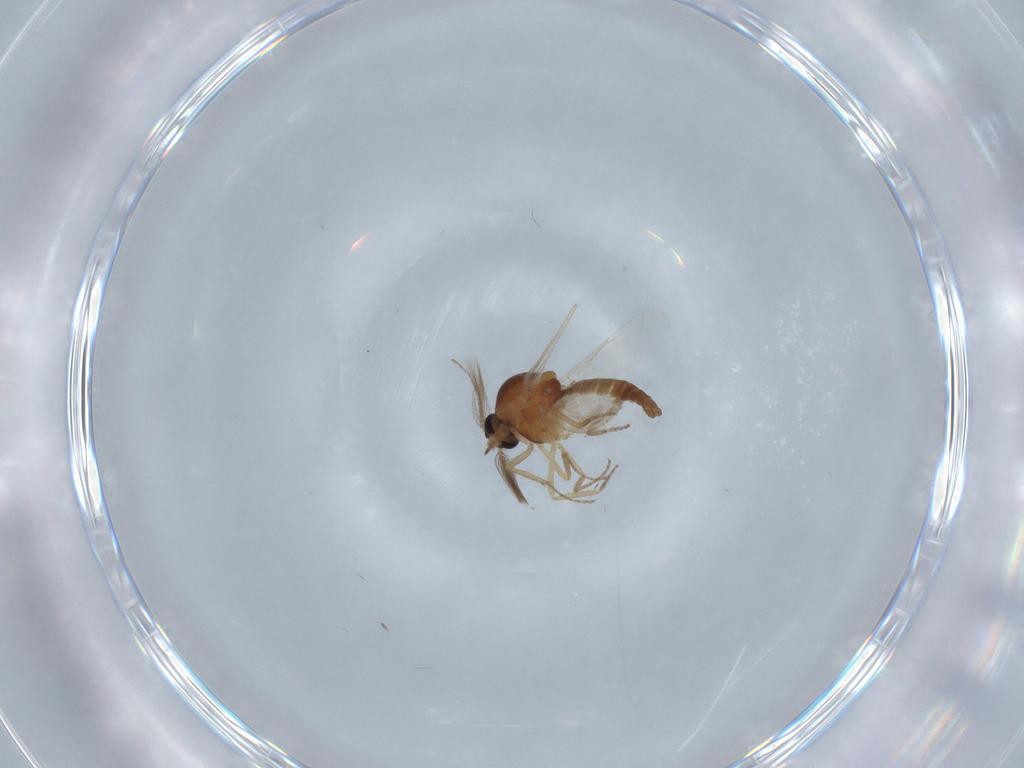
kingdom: Animalia
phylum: Arthropoda
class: Insecta
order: Diptera
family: Ceratopogonidae
